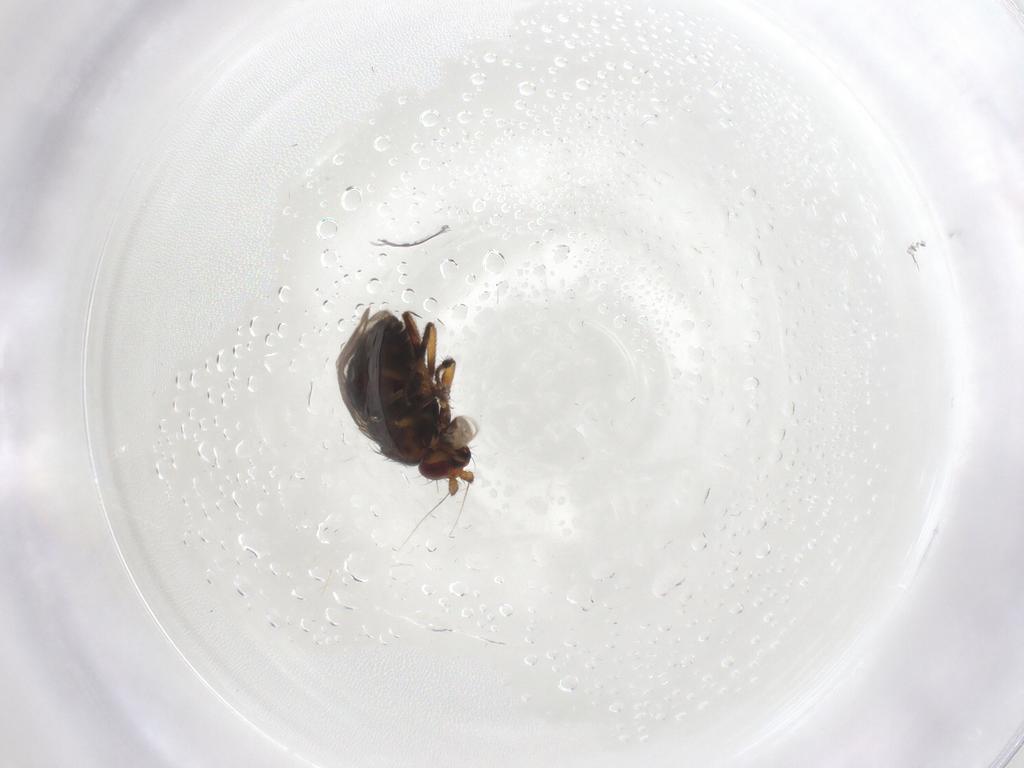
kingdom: Animalia
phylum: Arthropoda
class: Insecta
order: Diptera
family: Sphaeroceridae
